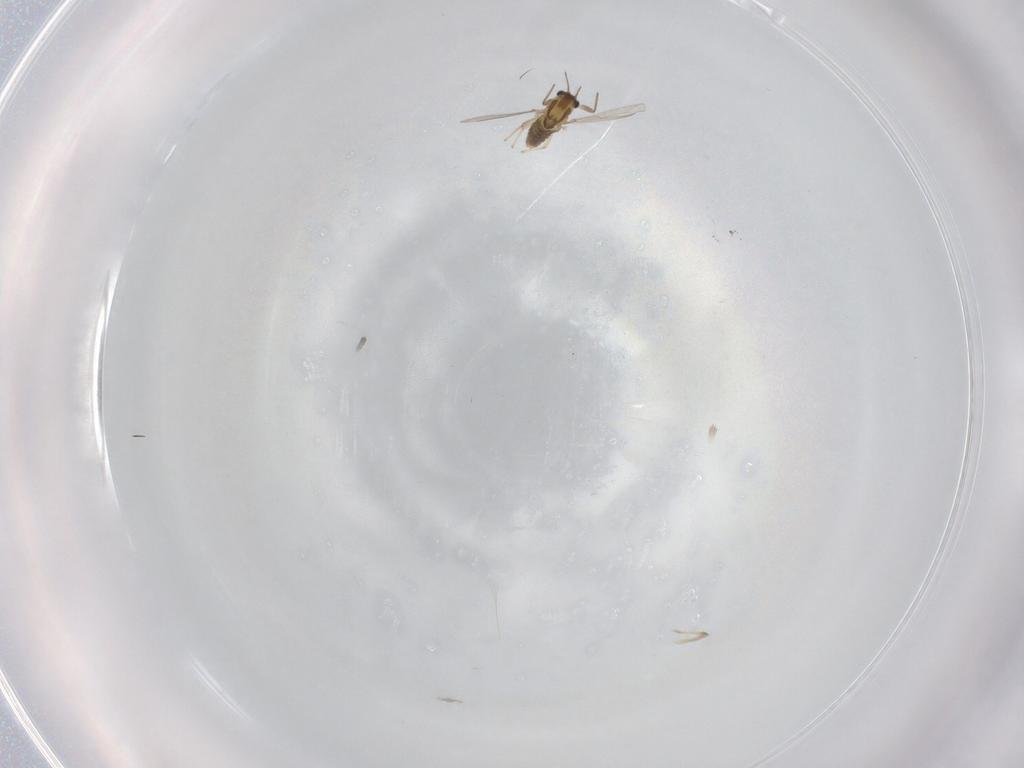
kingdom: Animalia
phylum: Arthropoda
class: Insecta
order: Diptera
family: Chironomidae
